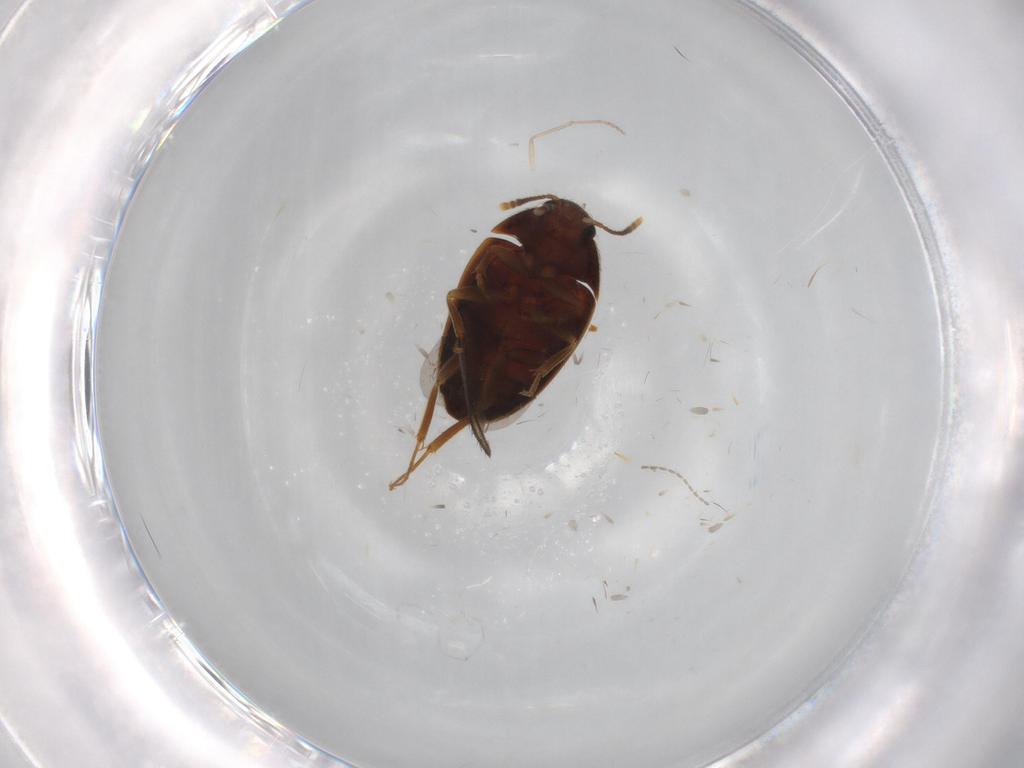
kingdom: Animalia
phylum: Arthropoda
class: Insecta
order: Coleoptera
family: Mycetophagidae
